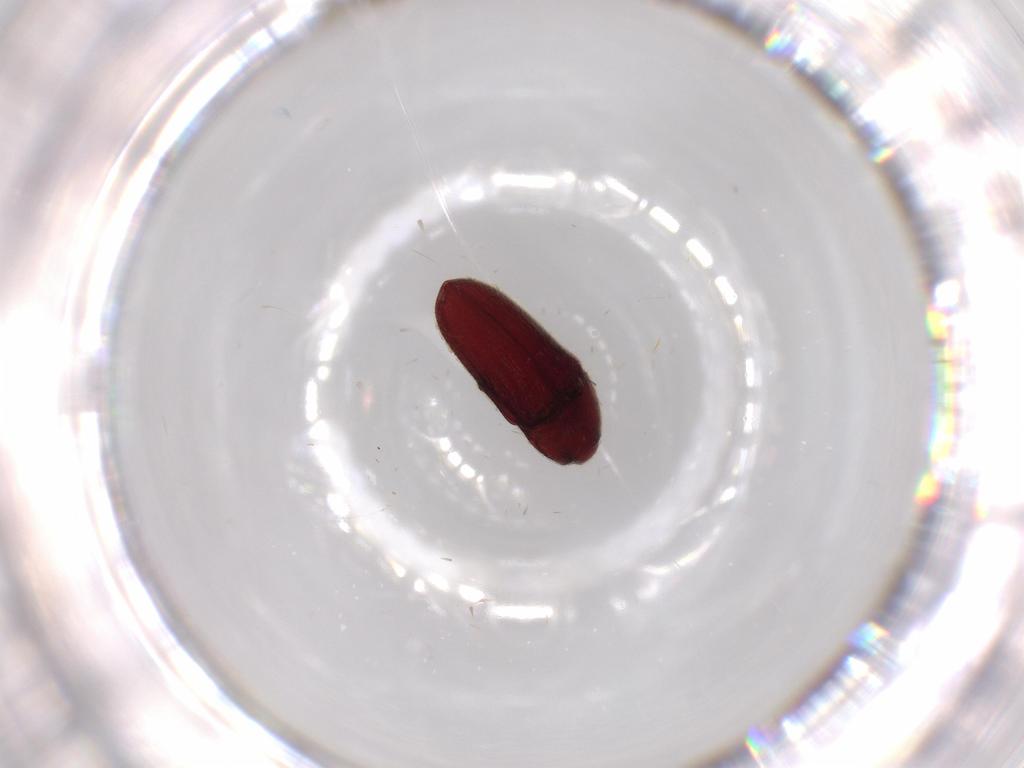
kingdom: Animalia
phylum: Arthropoda
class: Insecta
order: Coleoptera
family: Throscidae
